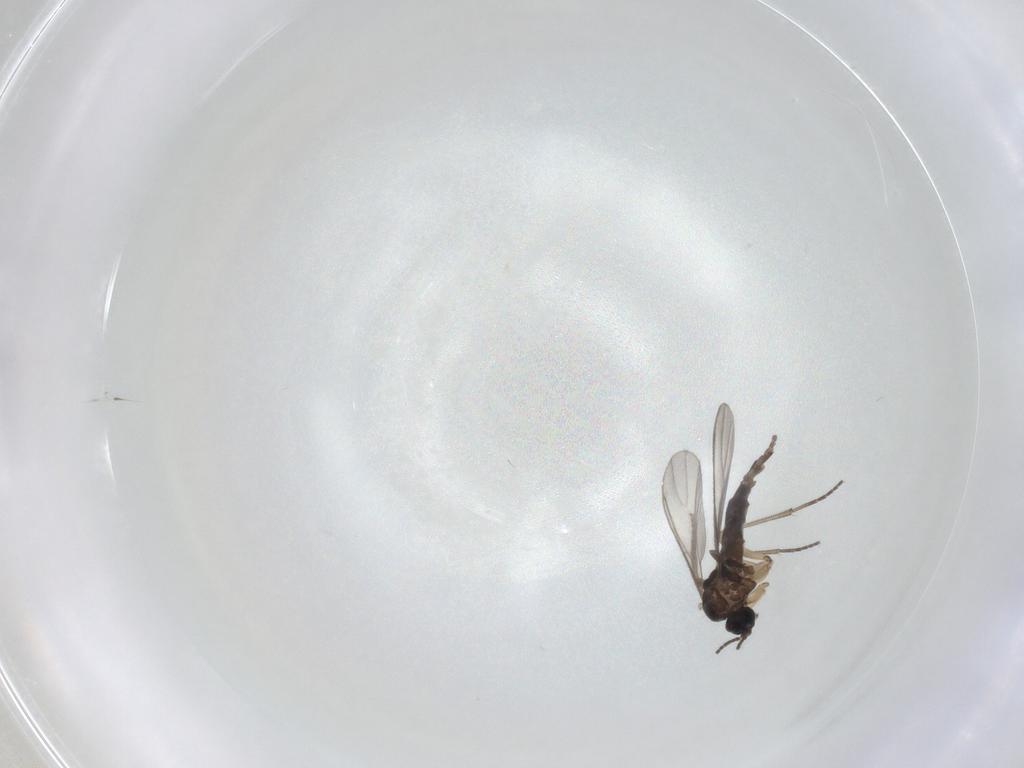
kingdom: Animalia
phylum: Arthropoda
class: Insecta
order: Diptera
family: Sciaridae
